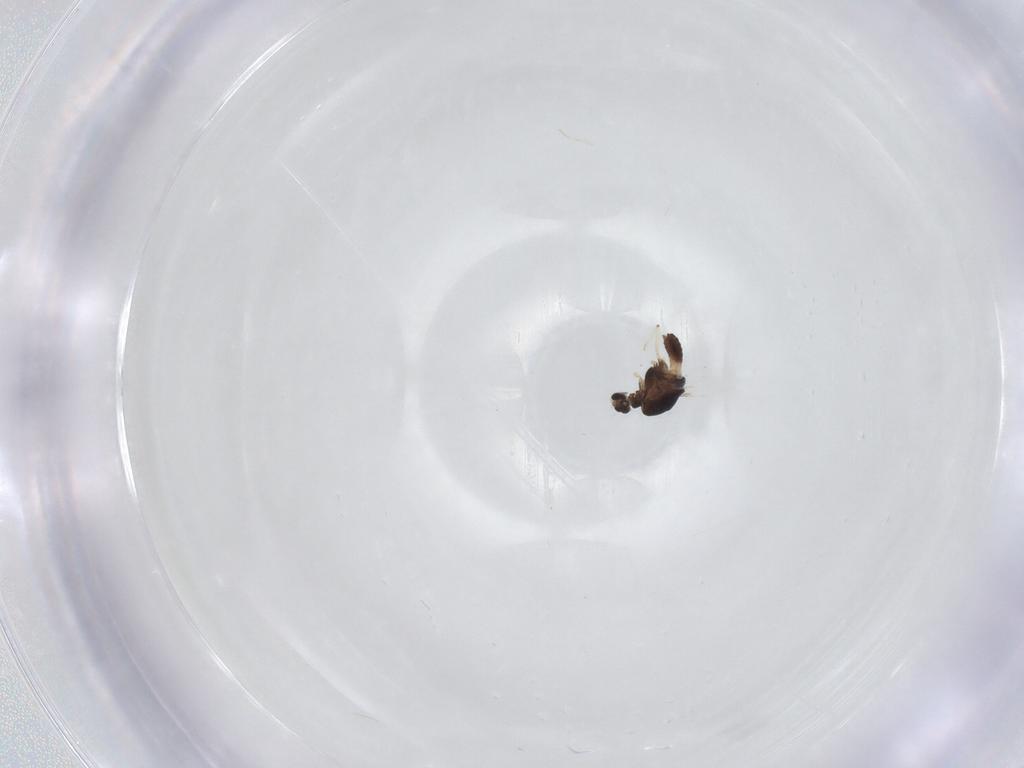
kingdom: Animalia
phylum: Arthropoda
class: Insecta
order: Diptera
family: Chironomidae
